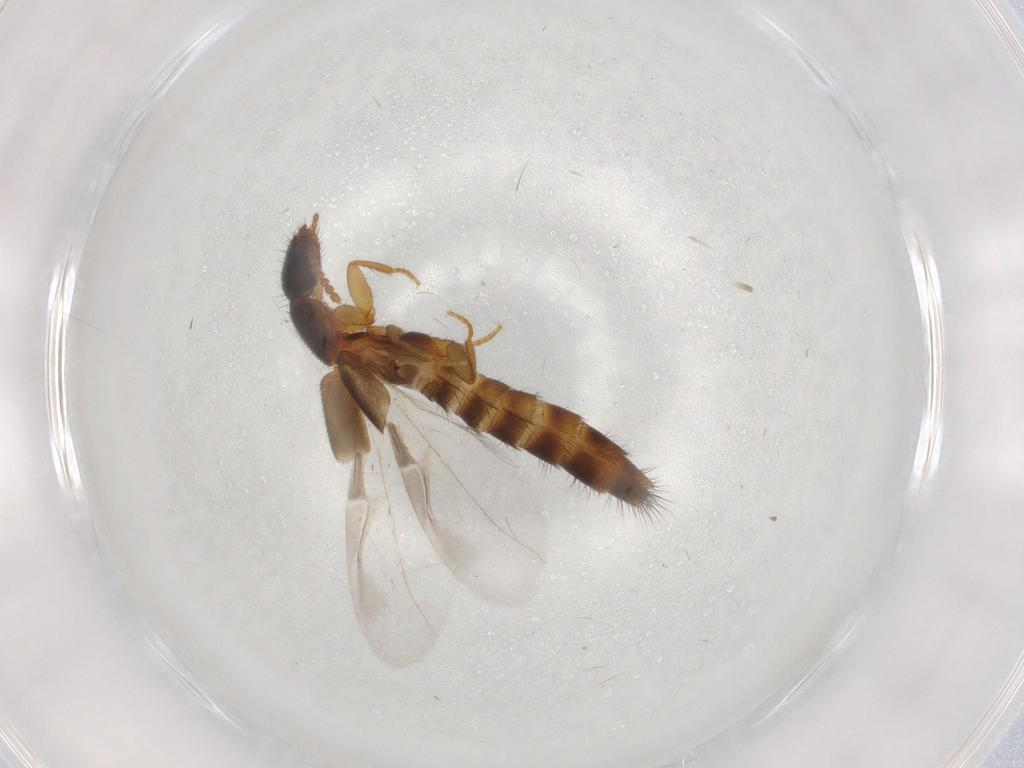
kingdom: Animalia
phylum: Arthropoda
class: Insecta
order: Coleoptera
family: Staphylinidae
